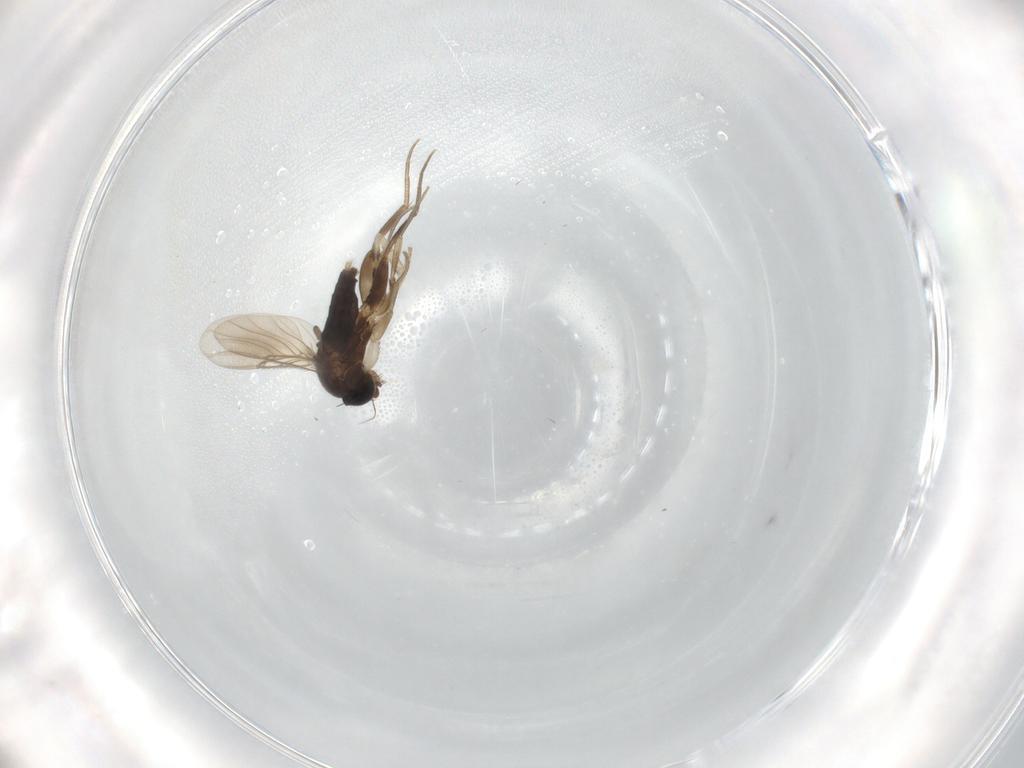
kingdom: Animalia
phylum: Arthropoda
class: Insecta
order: Diptera
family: Phoridae
